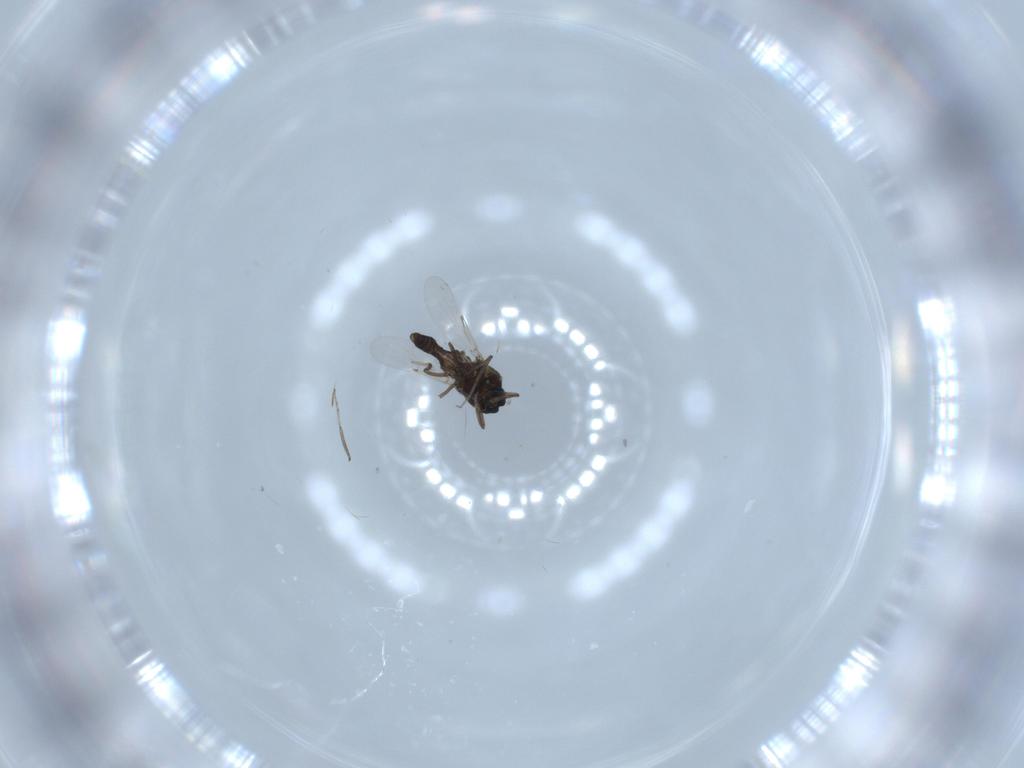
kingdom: Animalia
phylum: Arthropoda
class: Insecta
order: Diptera
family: Ceratopogonidae
